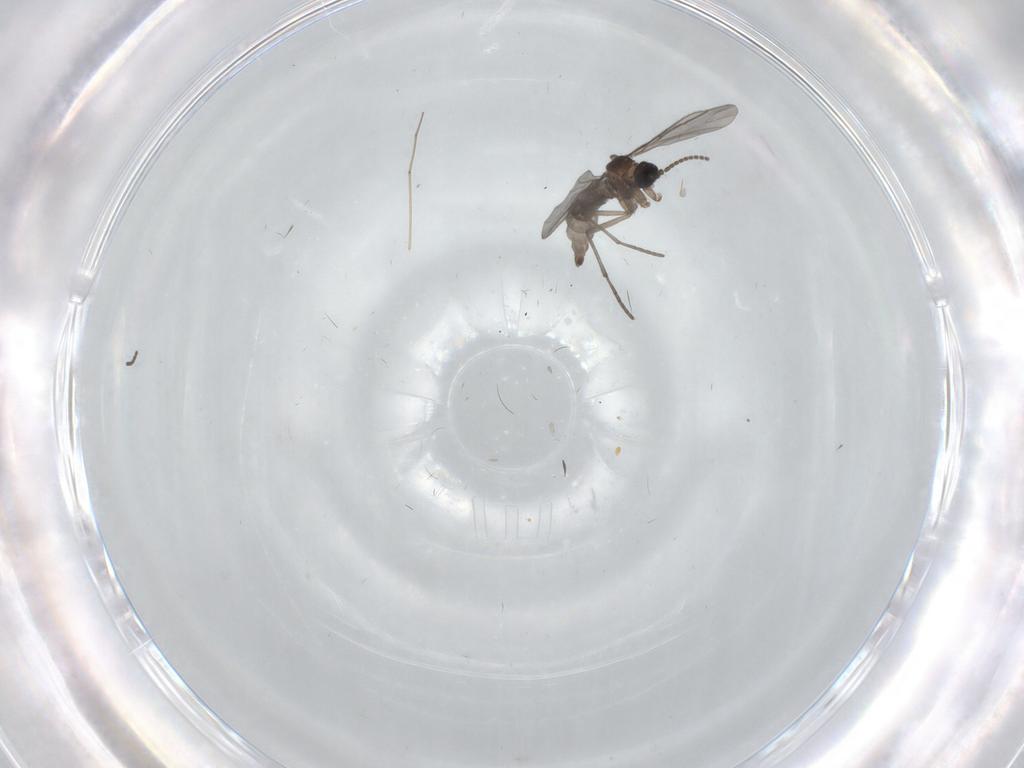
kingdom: Animalia
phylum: Arthropoda
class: Insecta
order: Diptera
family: Sciaridae
